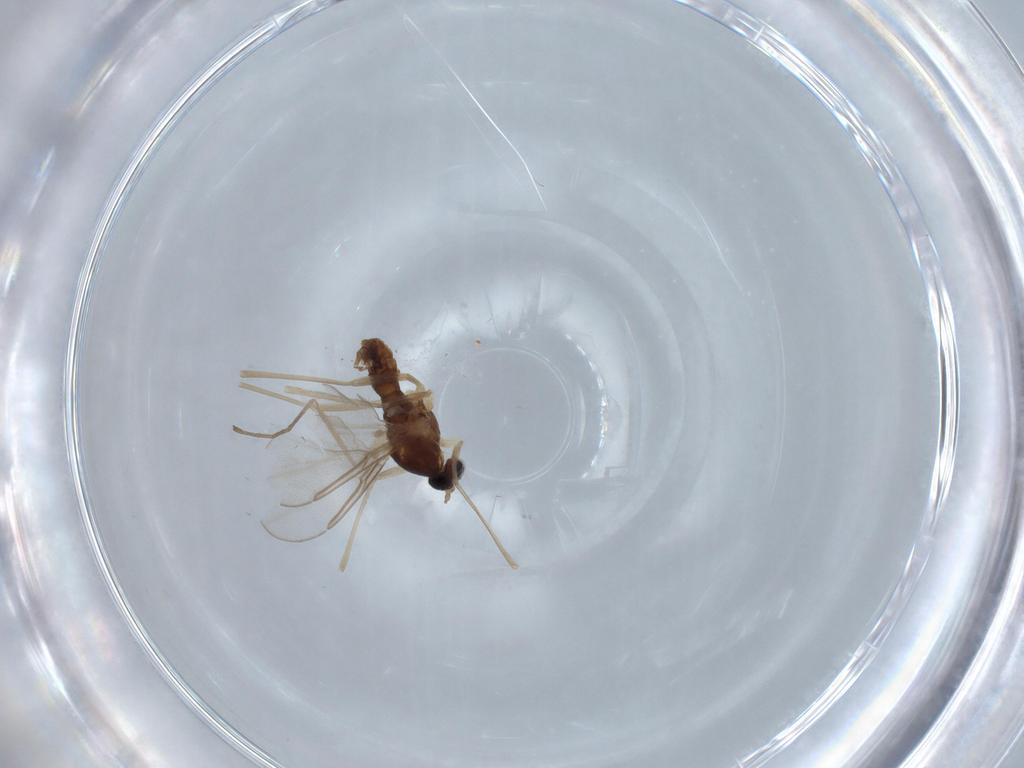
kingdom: Animalia
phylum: Arthropoda
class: Insecta
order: Diptera
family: Cecidomyiidae
